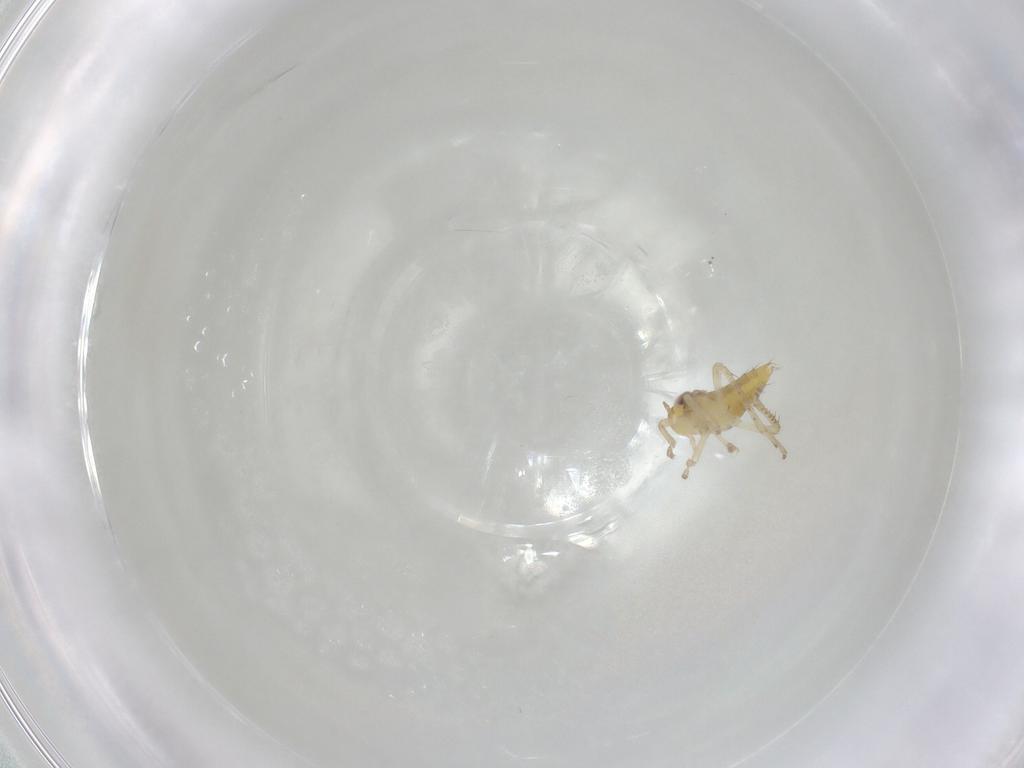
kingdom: Animalia
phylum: Arthropoda
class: Insecta
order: Hemiptera
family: Cicadellidae
